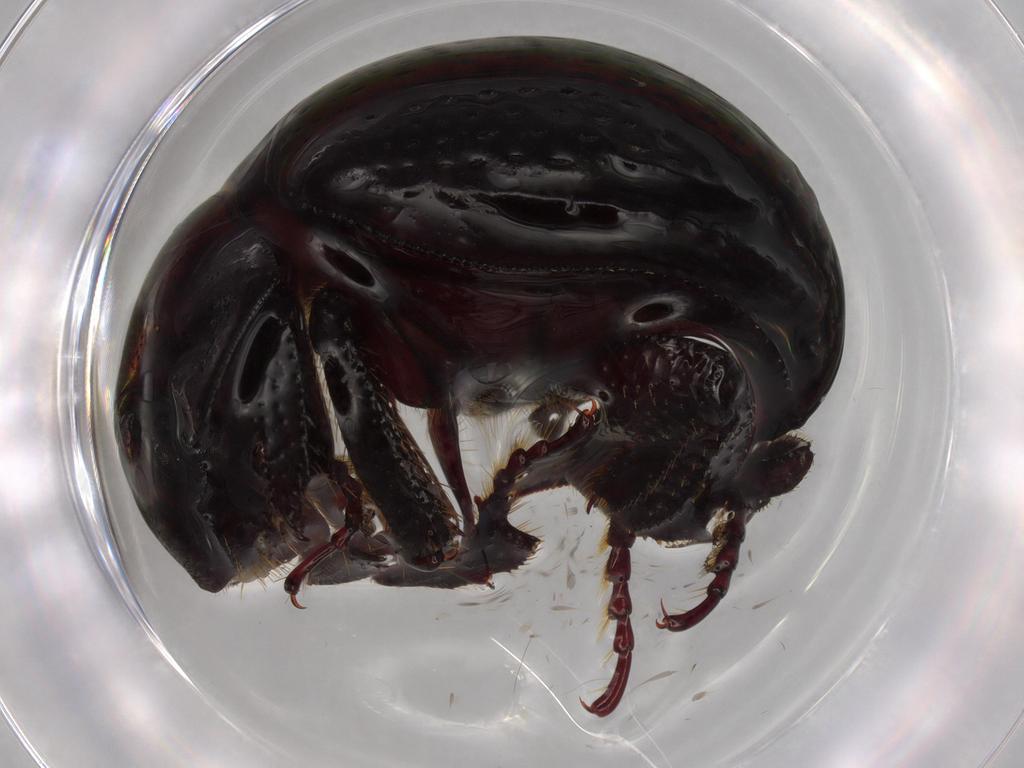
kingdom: Animalia
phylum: Arthropoda
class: Insecta
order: Coleoptera
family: Hybosoridae
